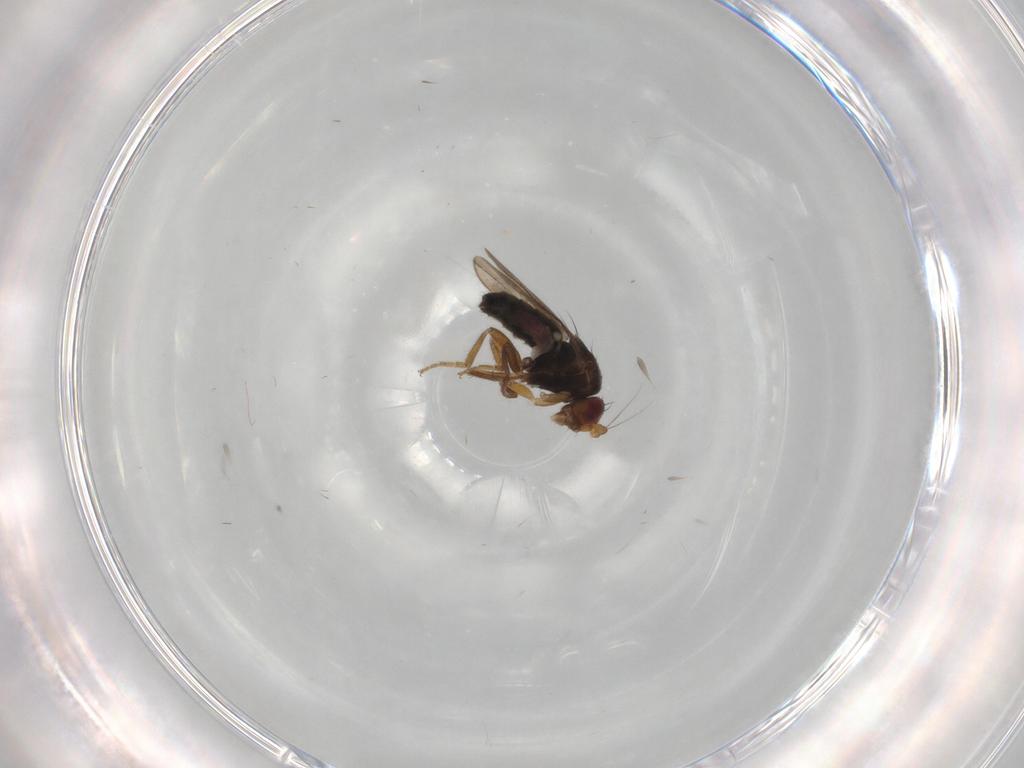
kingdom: Animalia
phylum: Arthropoda
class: Insecta
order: Diptera
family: Sphaeroceridae
